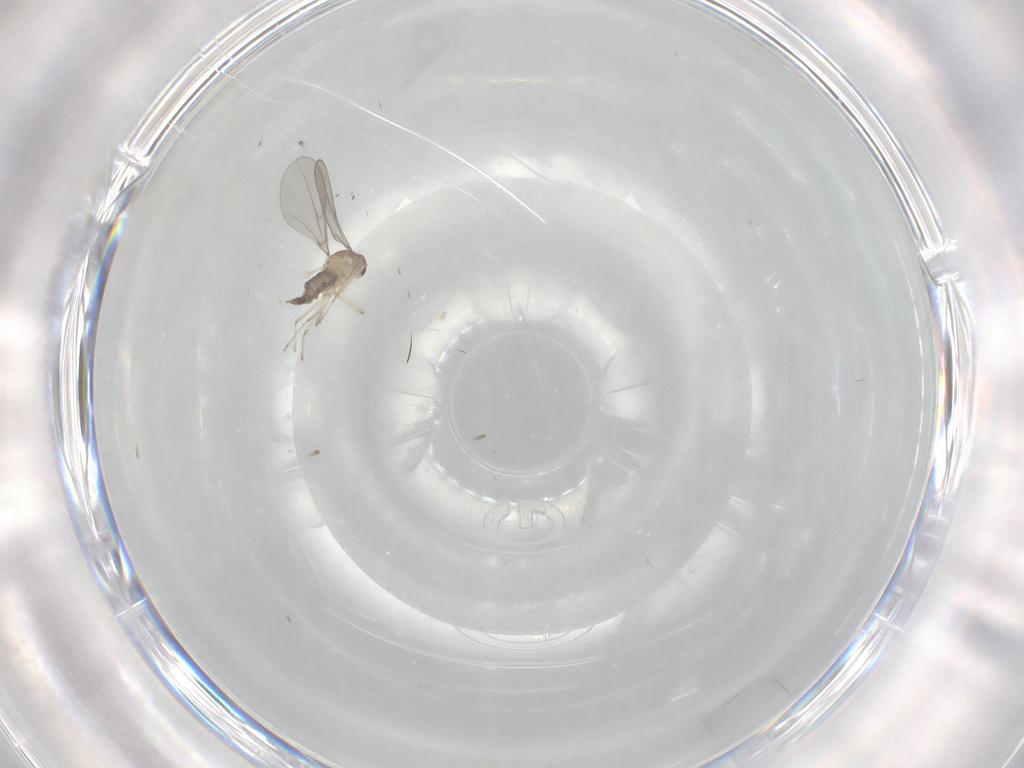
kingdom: Animalia
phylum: Arthropoda
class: Insecta
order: Diptera
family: Cecidomyiidae
